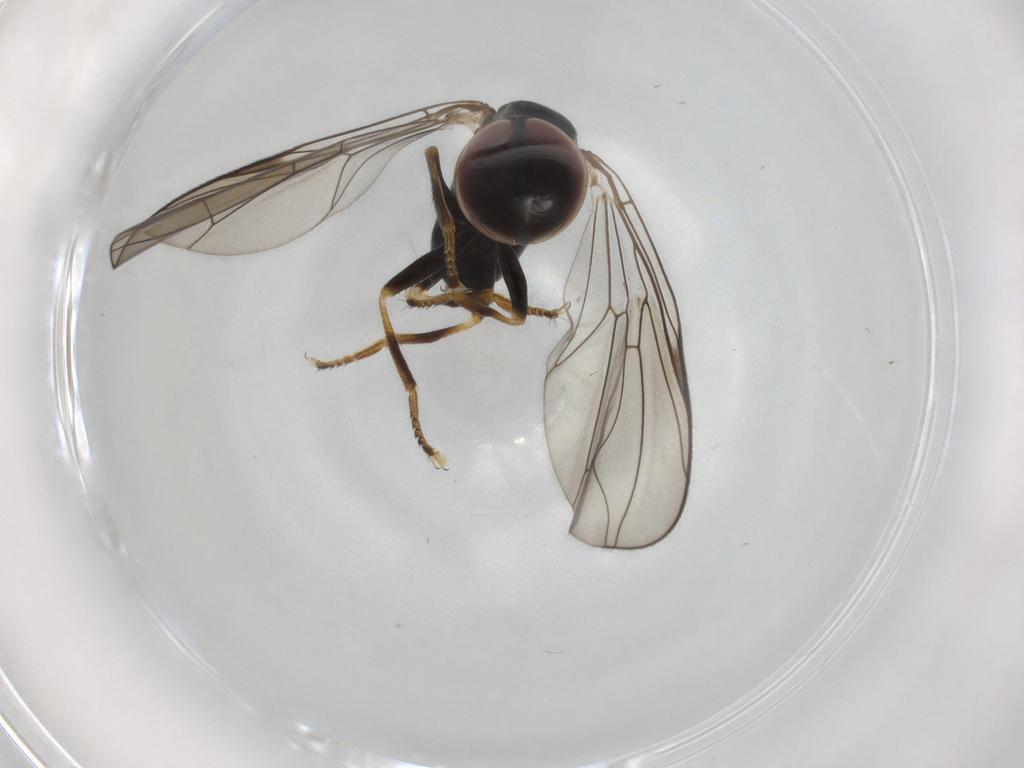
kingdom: Animalia
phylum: Arthropoda
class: Insecta
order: Diptera
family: Pipunculidae
